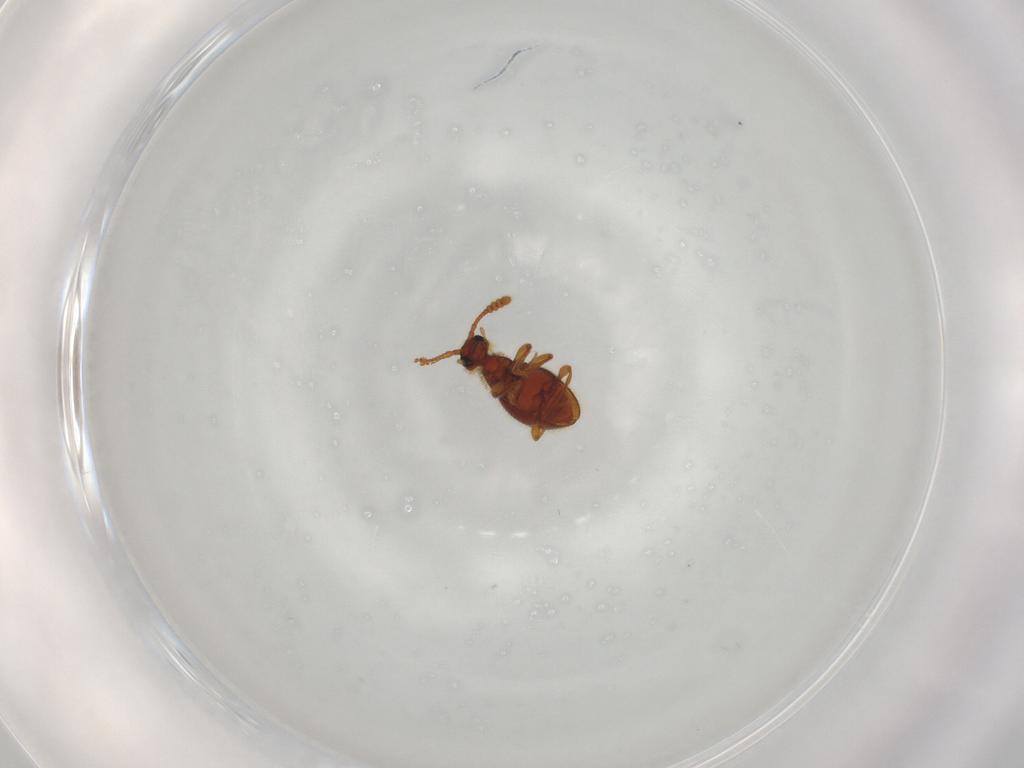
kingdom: Animalia
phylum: Arthropoda
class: Insecta
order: Coleoptera
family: Staphylinidae
